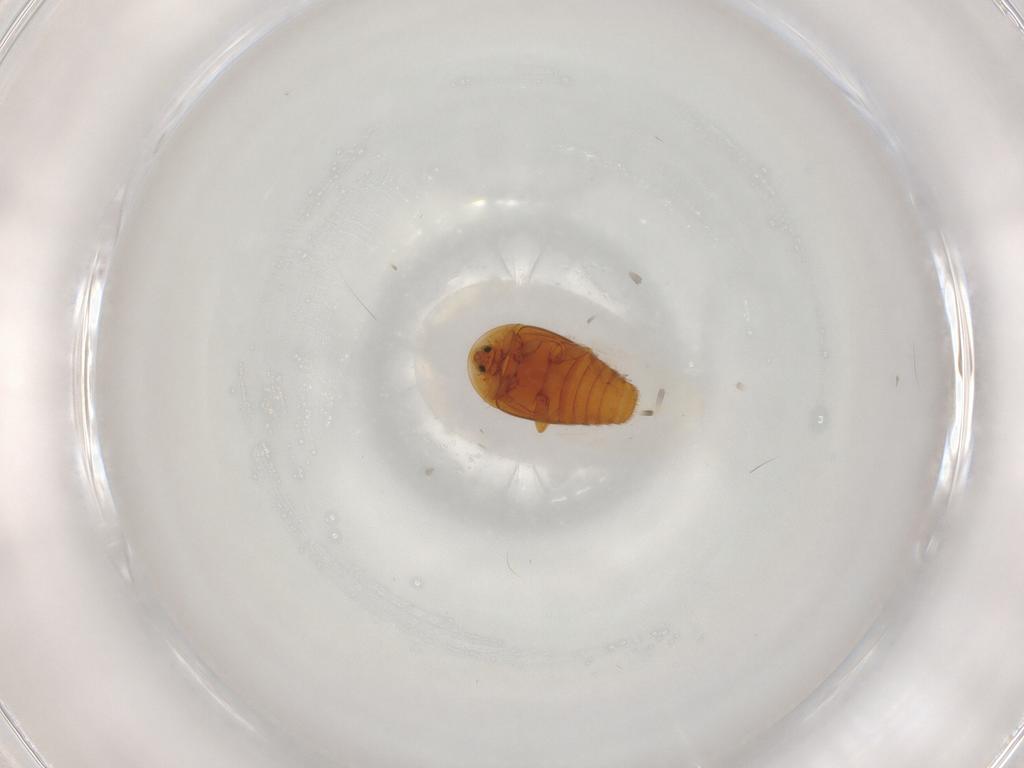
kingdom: Animalia
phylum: Arthropoda
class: Insecta
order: Coleoptera
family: Corylophidae
